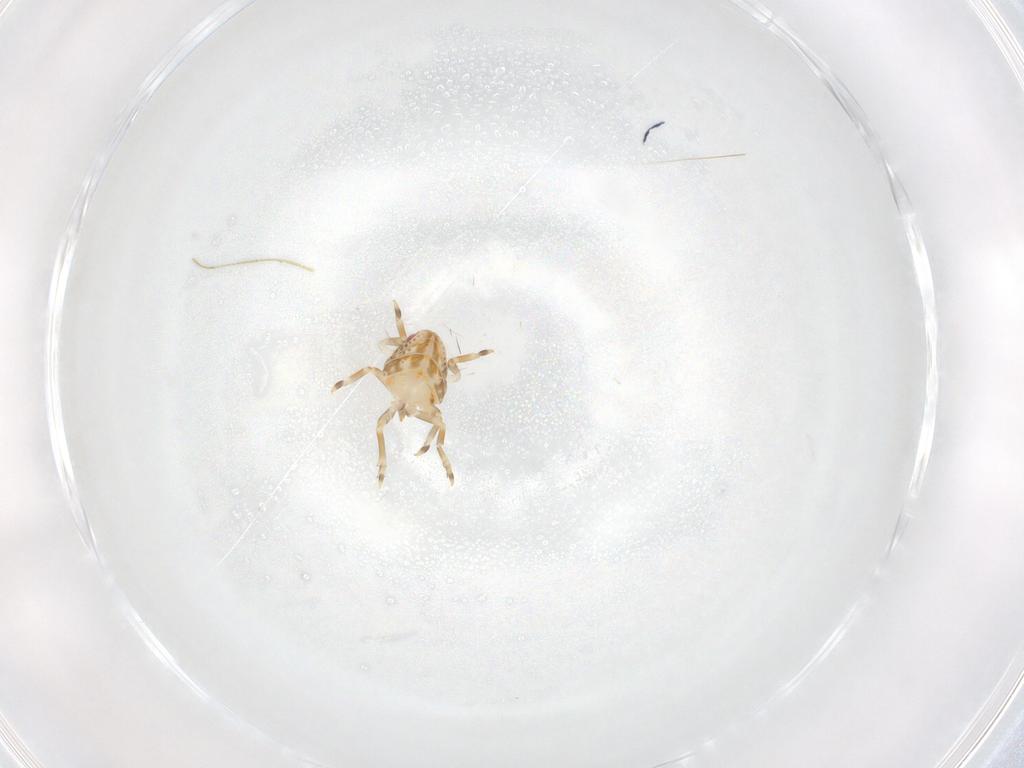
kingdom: Animalia
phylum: Arthropoda
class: Insecta
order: Hemiptera
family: Flatidae
